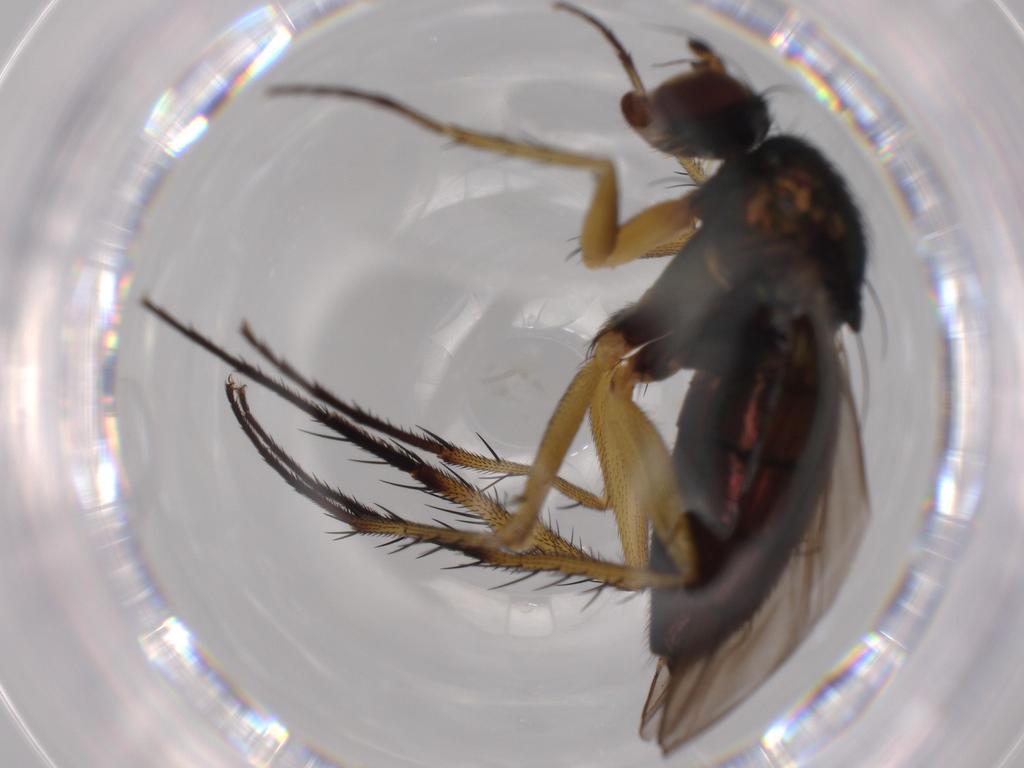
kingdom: Animalia
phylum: Arthropoda
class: Insecta
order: Diptera
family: Dolichopodidae
